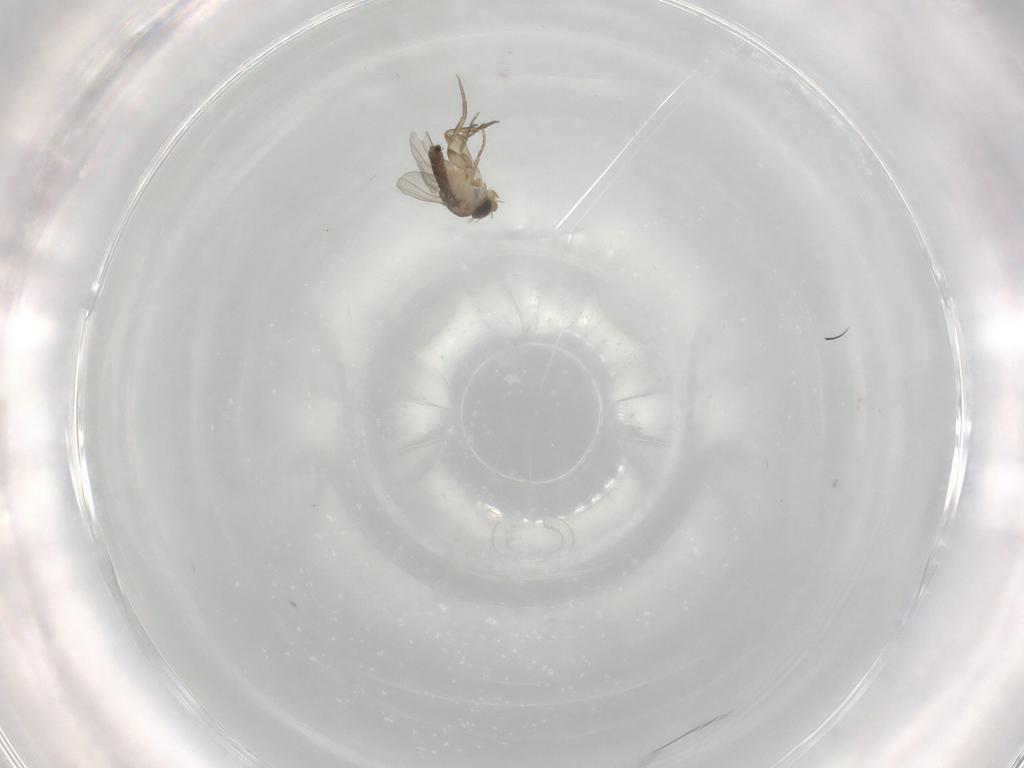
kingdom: Animalia
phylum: Arthropoda
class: Insecta
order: Diptera
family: Phoridae
